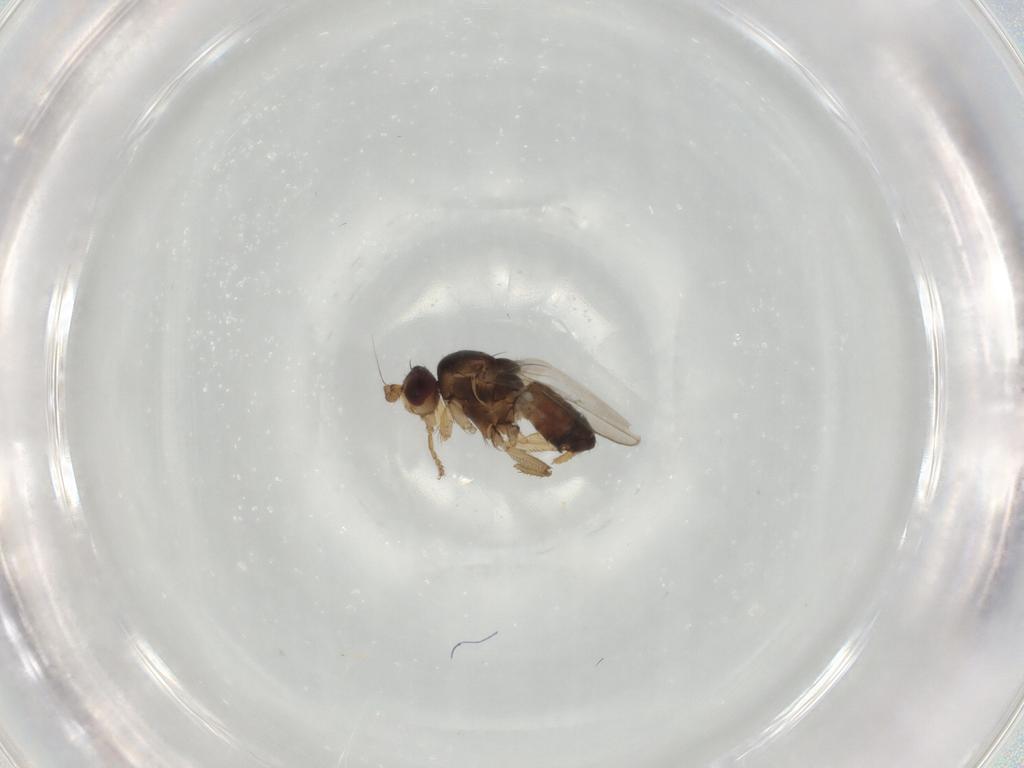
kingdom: Animalia
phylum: Arthropoda
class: Insecta
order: Diptera
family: Sphaeroceridae
